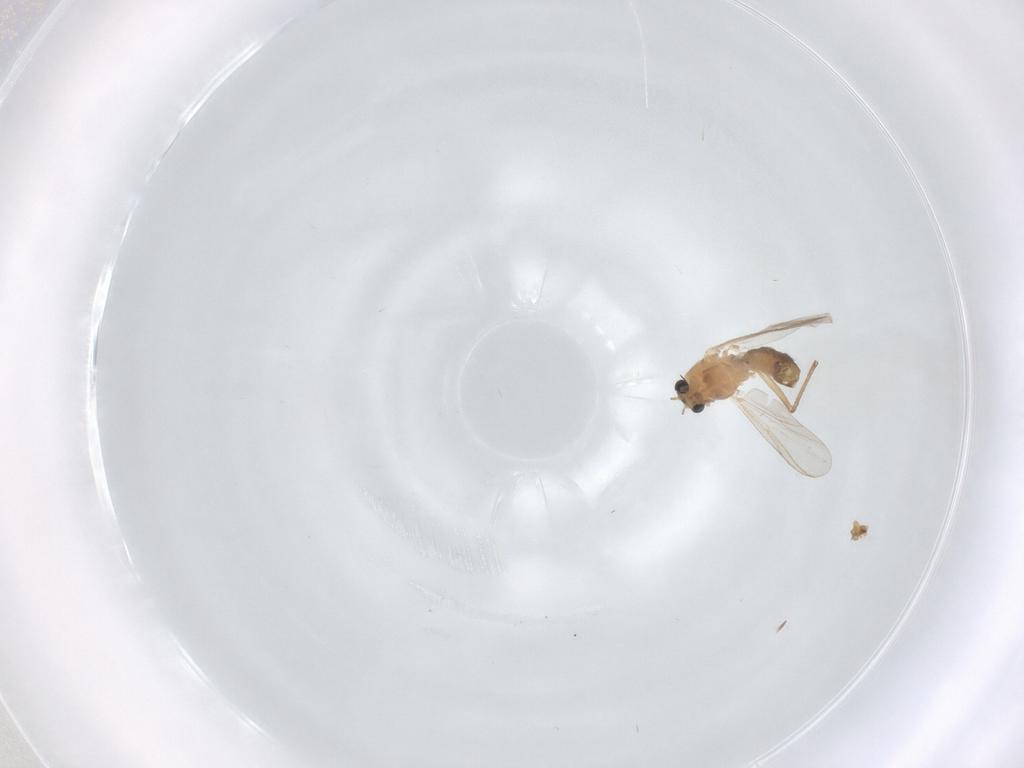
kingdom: Animalia
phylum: Arthropoda
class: Insecta
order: Diptera
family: Chironomidae
